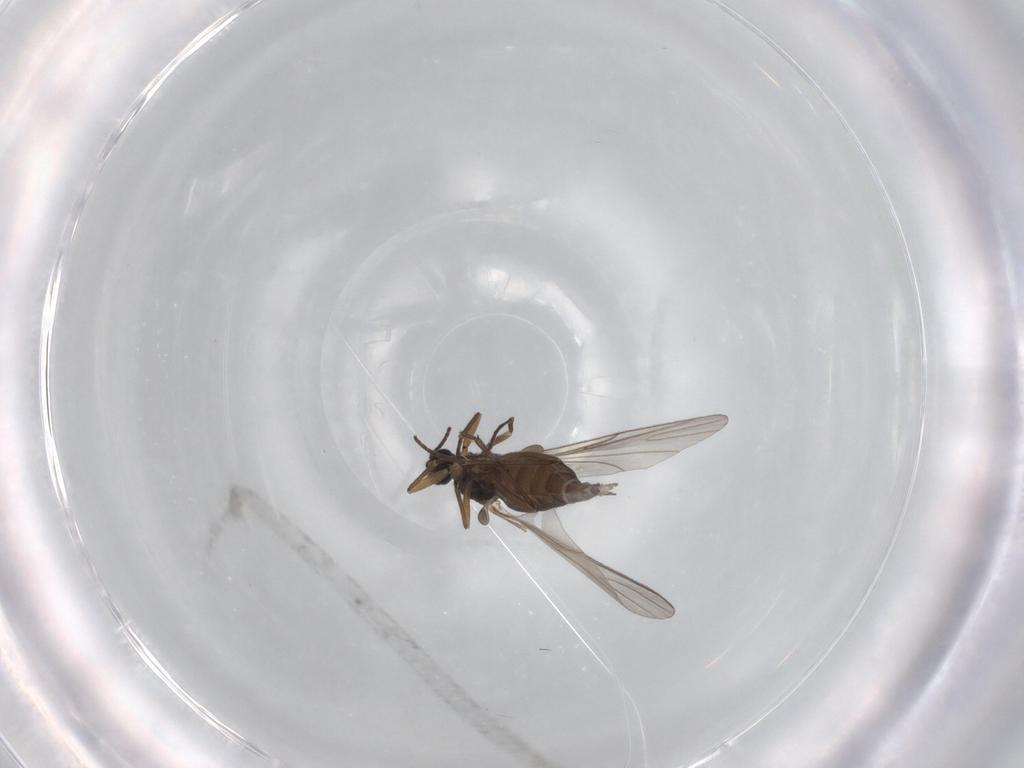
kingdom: Animalia
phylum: Arthropoda
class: Insecta
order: Diptera
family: Sciaridae
